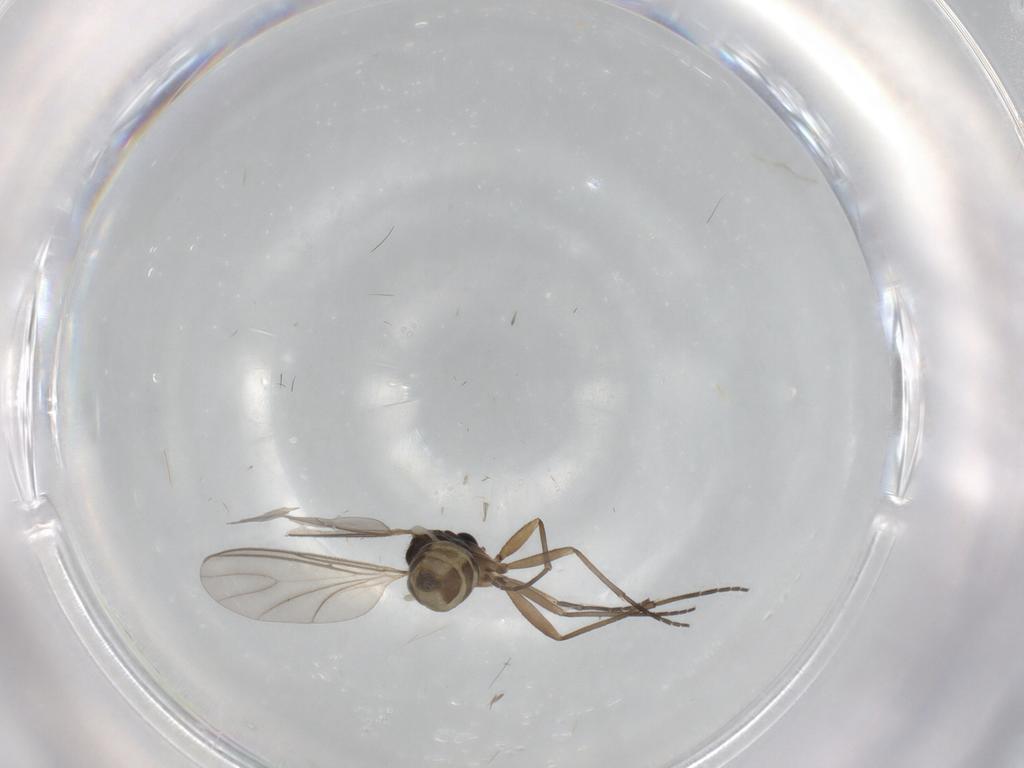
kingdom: Animalia
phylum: Arthropoda
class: Insecta
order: Diptera
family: Sciaridae
